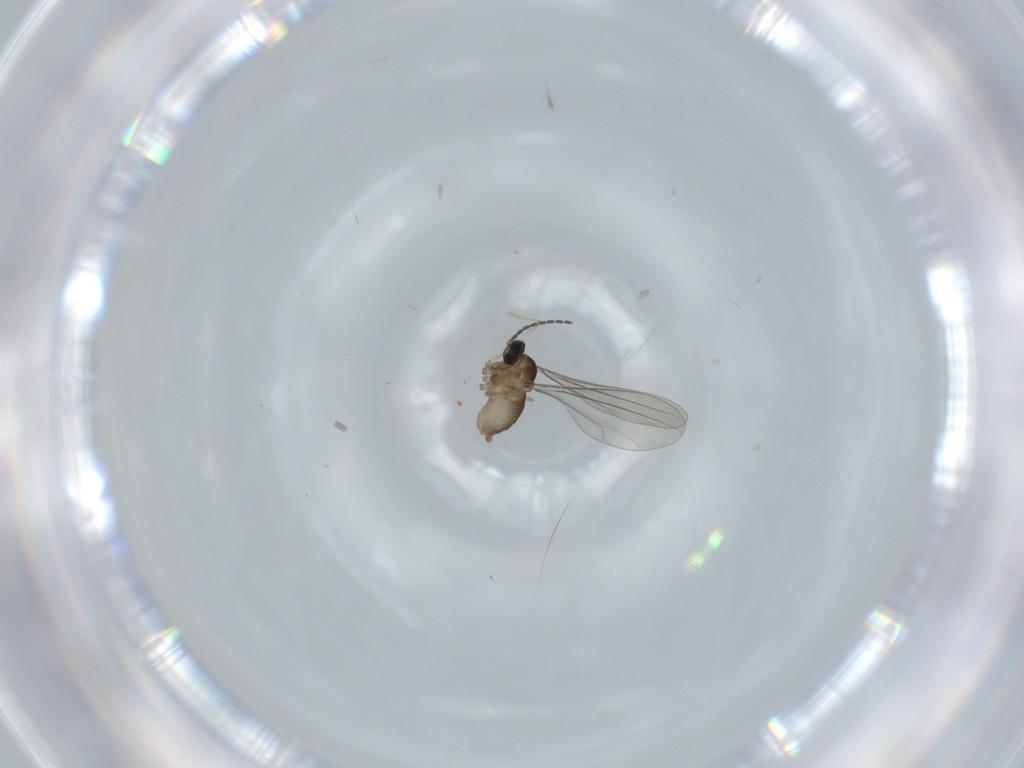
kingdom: Animalia
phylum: Arthropoda
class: Insecta
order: Diptera
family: Cecidomyiidae
